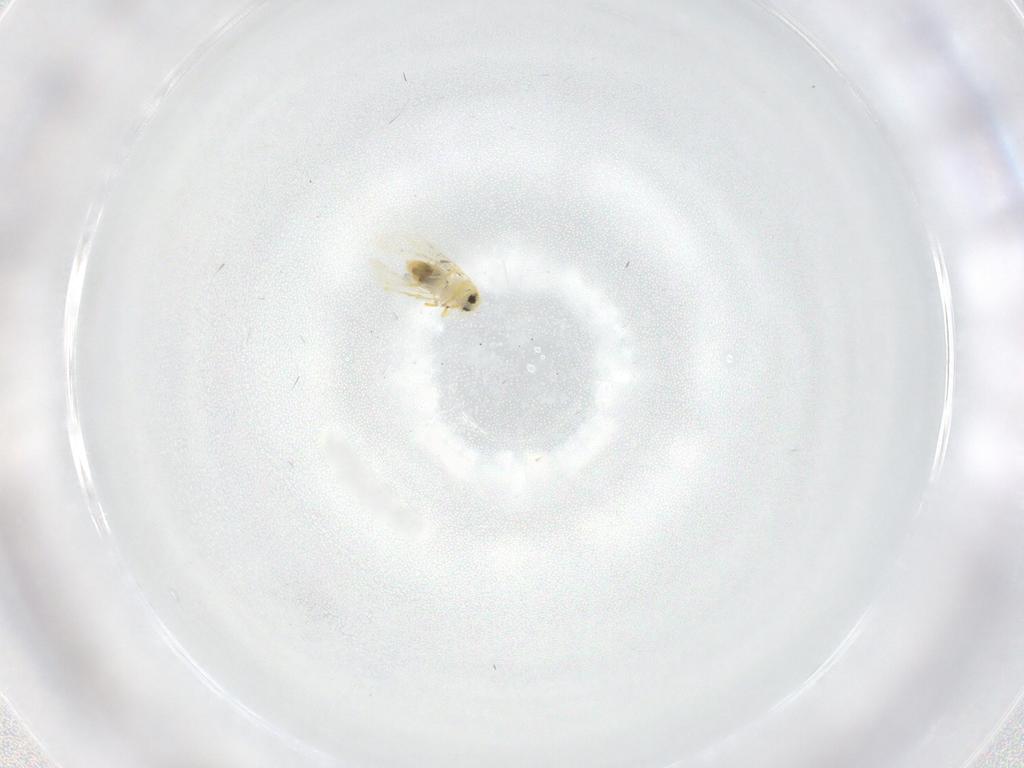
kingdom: Animalia
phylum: Arthropoda
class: Insecta
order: Hemiptera
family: Aleyrodidae
